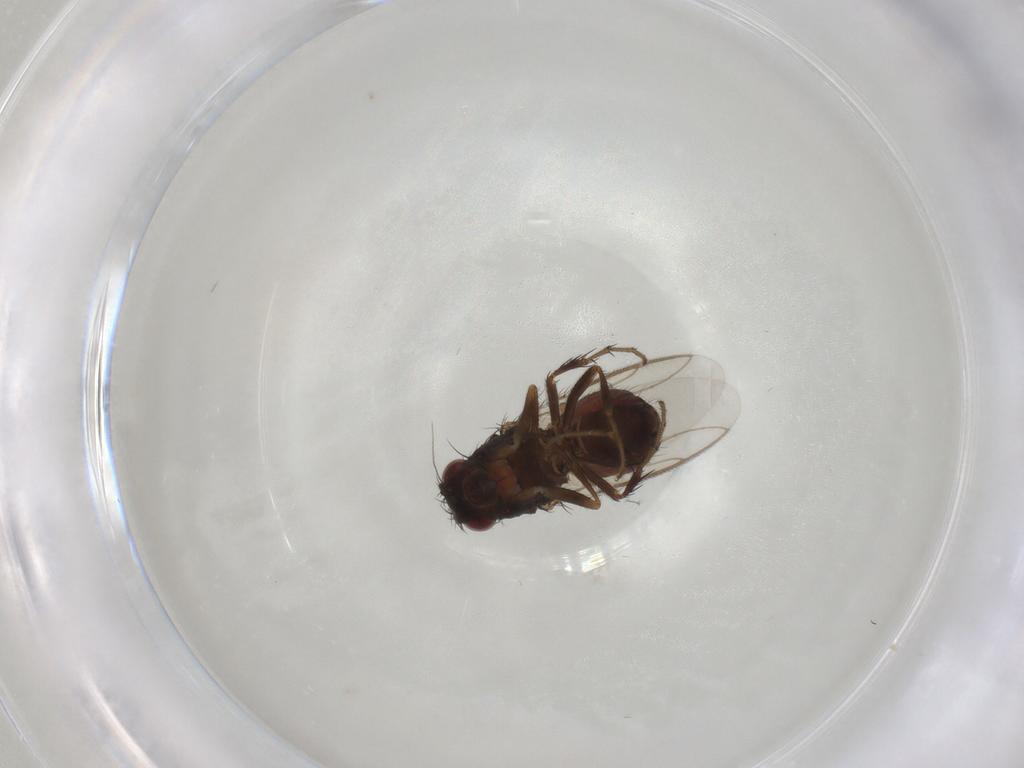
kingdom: Animalia
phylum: Arthropoda
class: Insecta
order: Diptera
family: Sphaeroceridae
